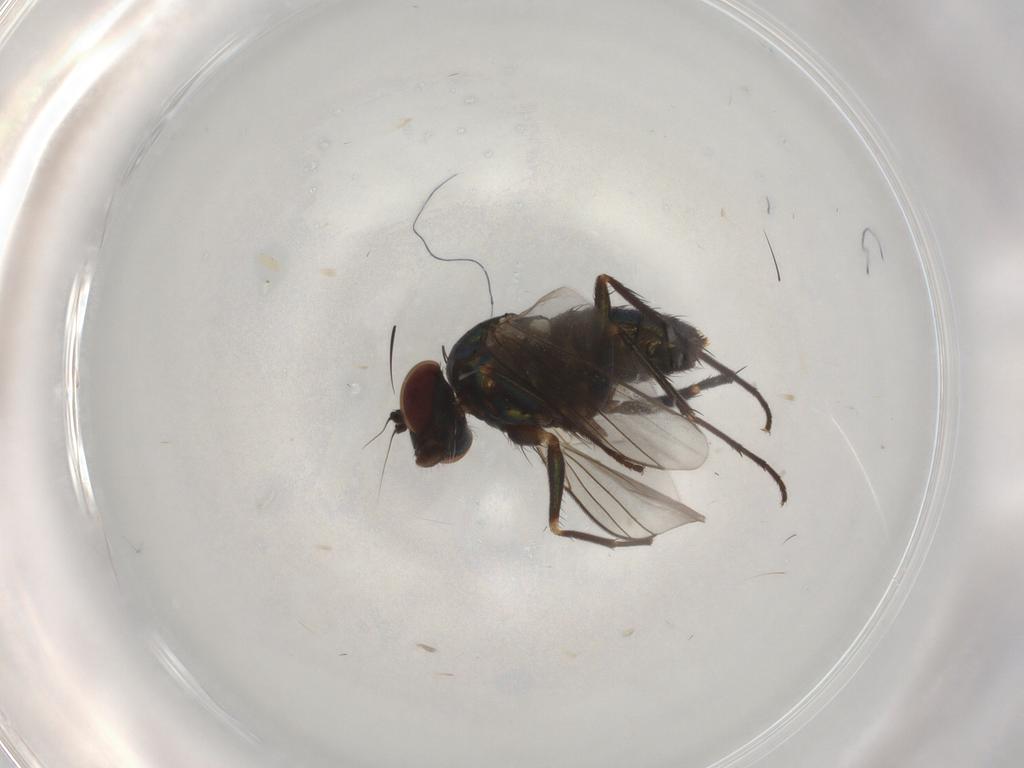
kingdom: Animalia
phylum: Arthropoda
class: Insecta
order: Diptera
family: Dolichopodidae
